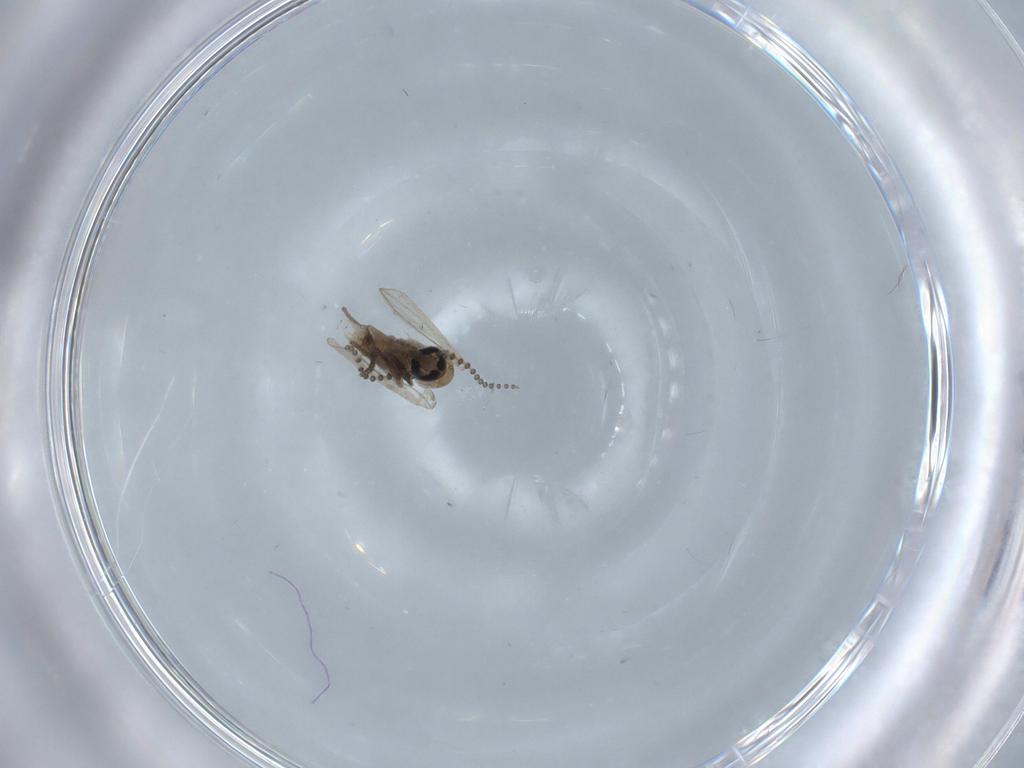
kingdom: Animalia
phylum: Arthropoda
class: Insecta
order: Diptera
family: Psychodidae
